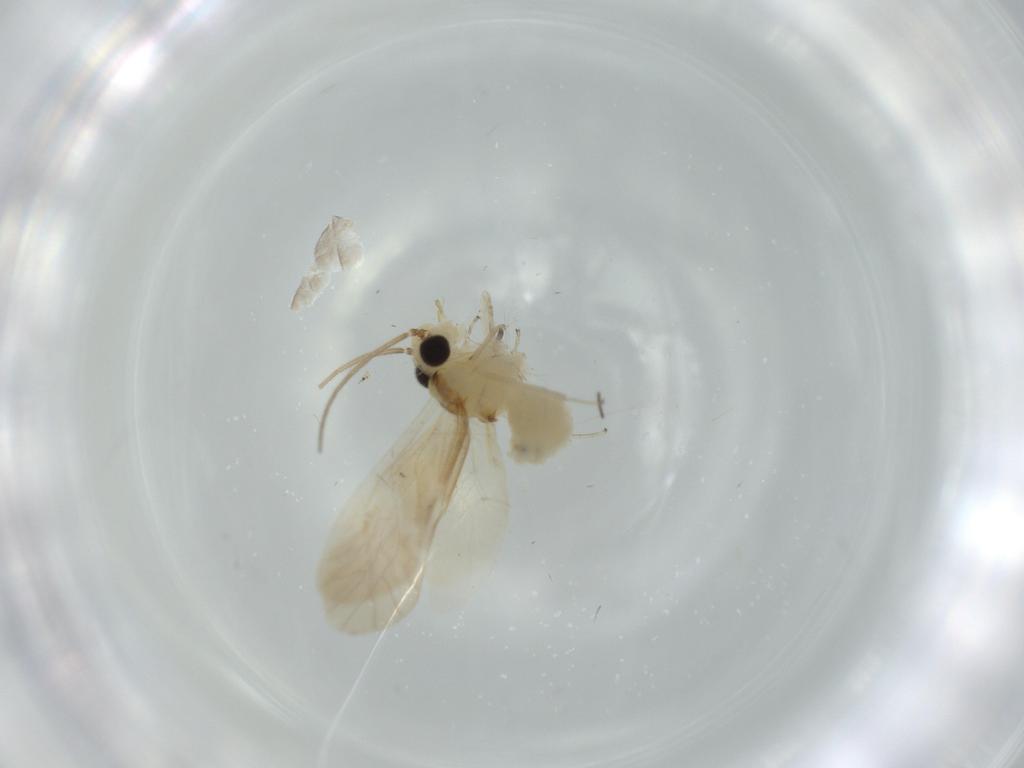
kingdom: Animalia
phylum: Arthropoda
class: Insecta
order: Psocodea
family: Caeciliusidae
